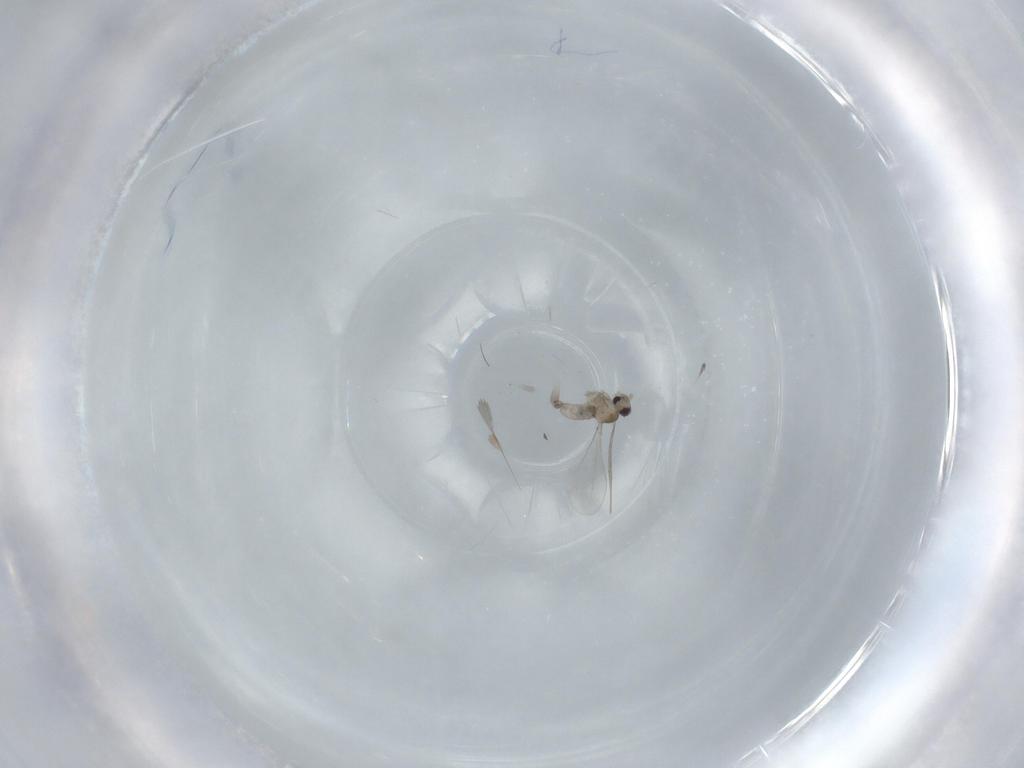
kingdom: Animalia
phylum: Arthropoda
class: Insecta
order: Diptera
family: Cecidomyiidae
